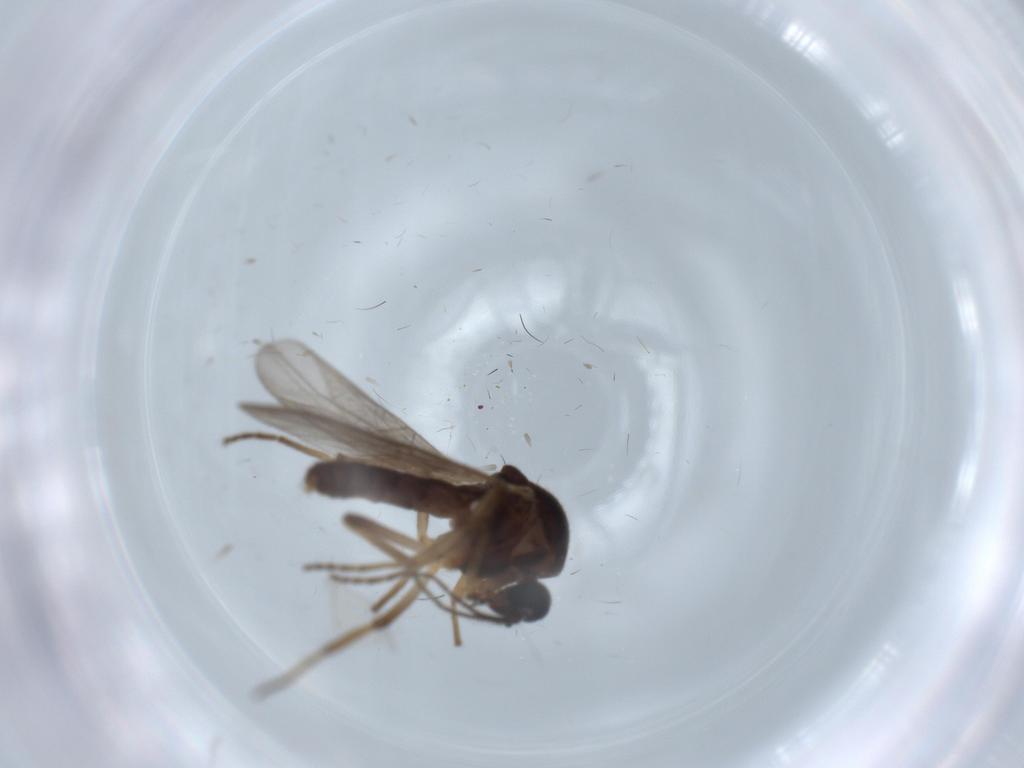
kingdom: Animalia
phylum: Arthropoda
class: Insecta
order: Diptera
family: Ceratopogonidae
